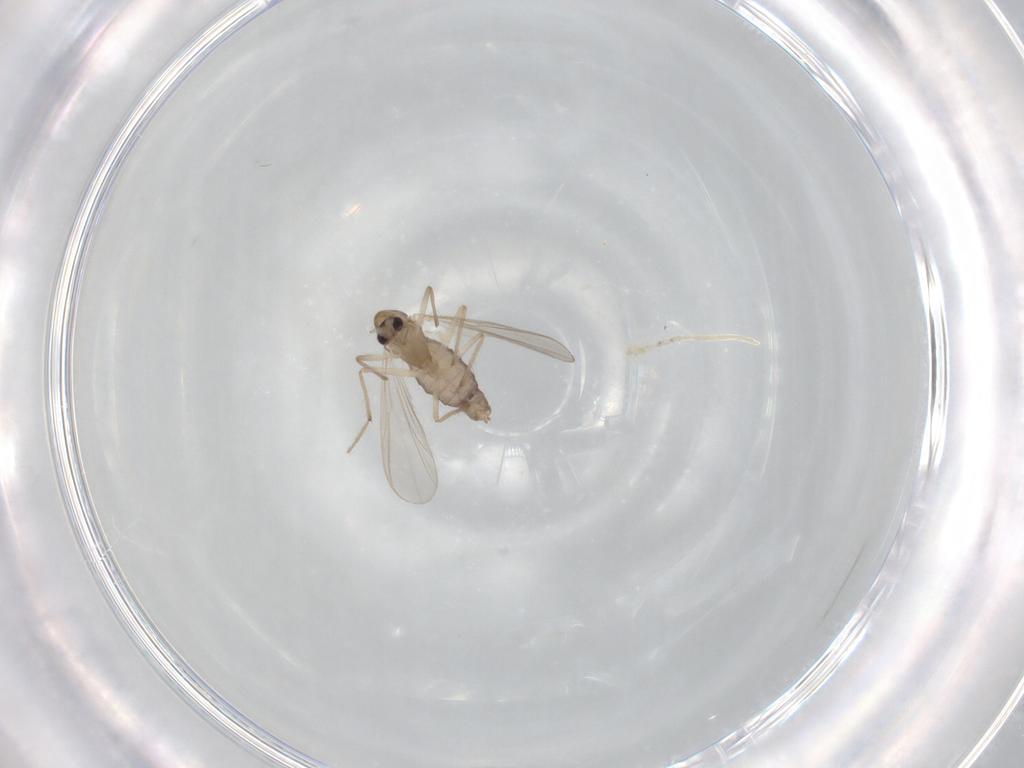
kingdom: Animalia
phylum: Arthropoda
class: Insecta
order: Diptera
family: Chironomidae
